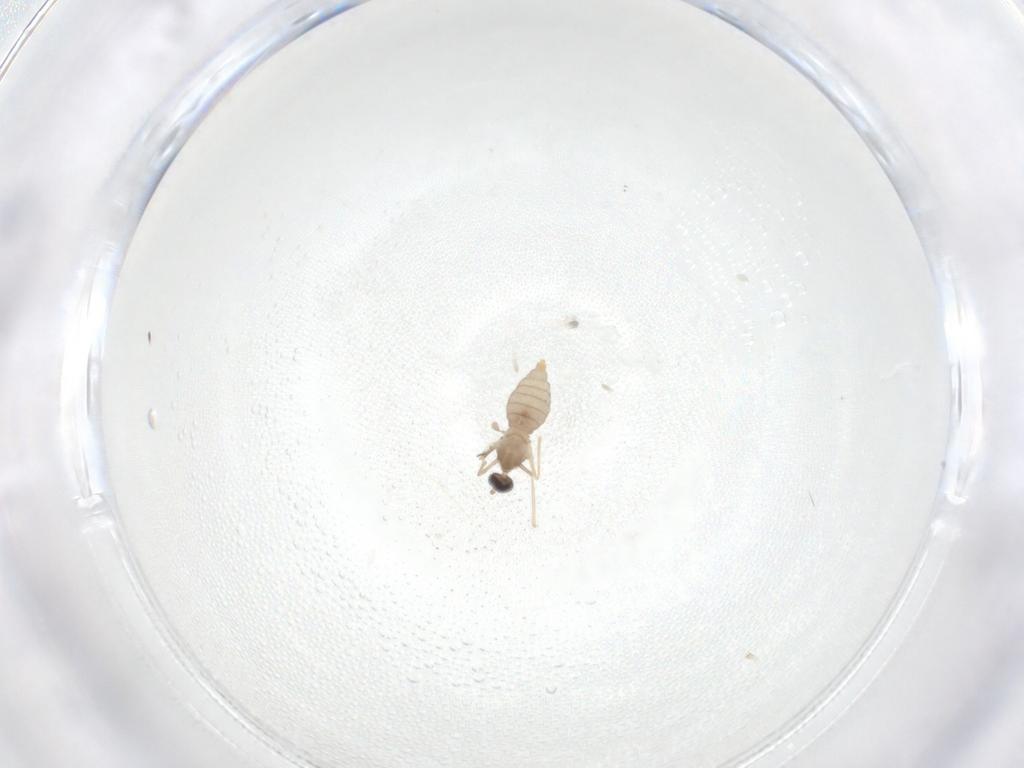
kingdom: Animalia
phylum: Arthropoda
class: Insecta
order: Diptera
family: Cecidomyiidae
